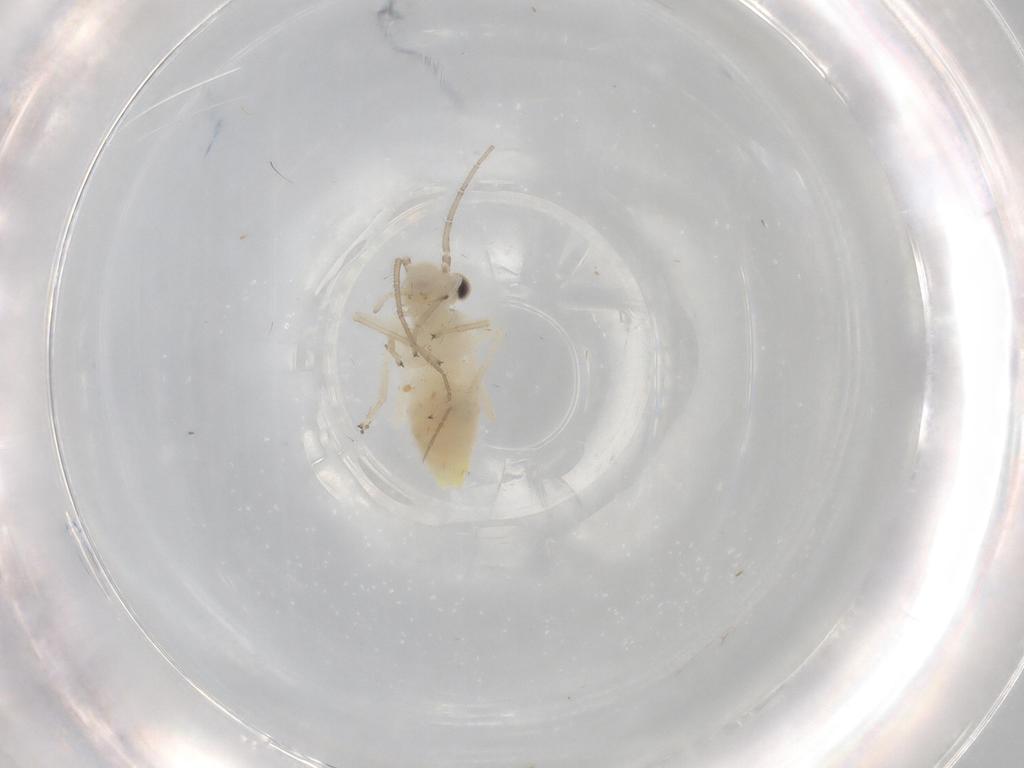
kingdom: Animalia
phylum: Arthropoda
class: Insecta
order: Psocodea
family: Caeciliusidae
